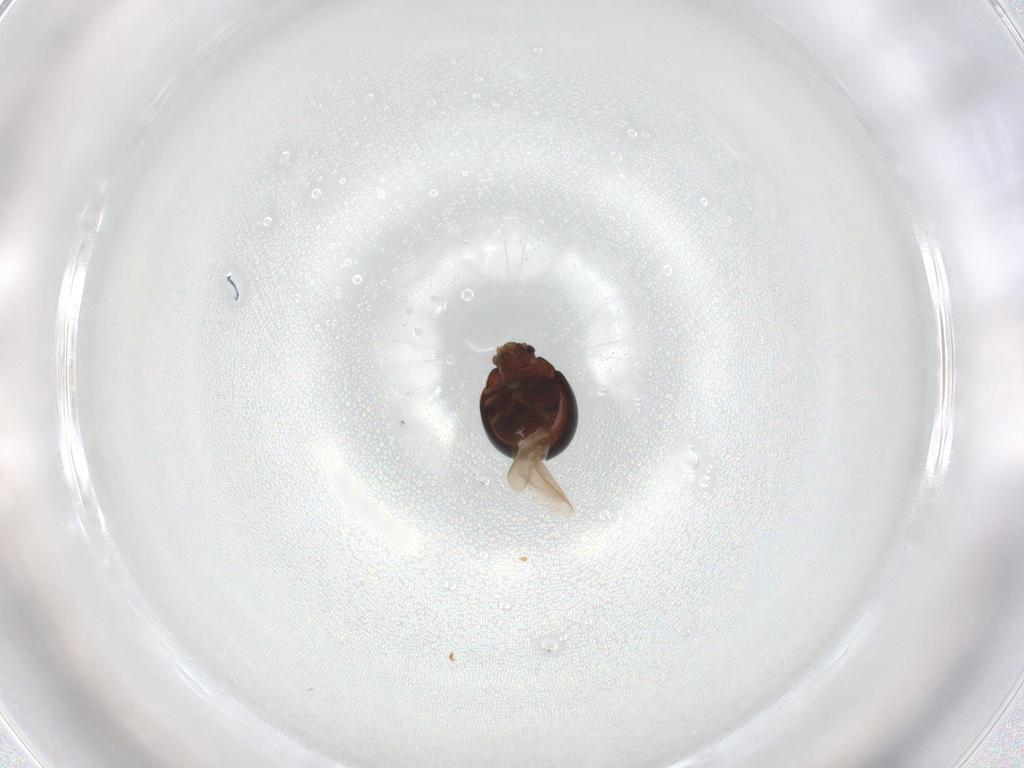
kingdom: Animalia
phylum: Arthropoda
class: Insecta
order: Coleoptera
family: Anamorphidae
